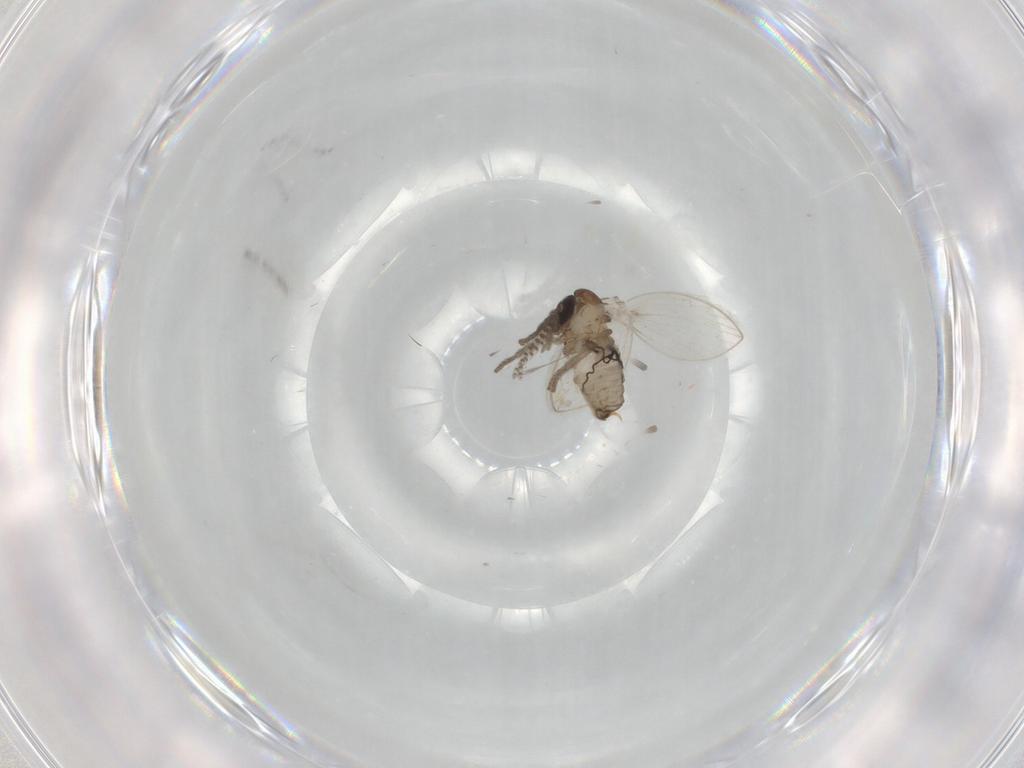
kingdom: Animalia
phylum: Arthropoda
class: Insecta
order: Diptera
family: Psychodidae
